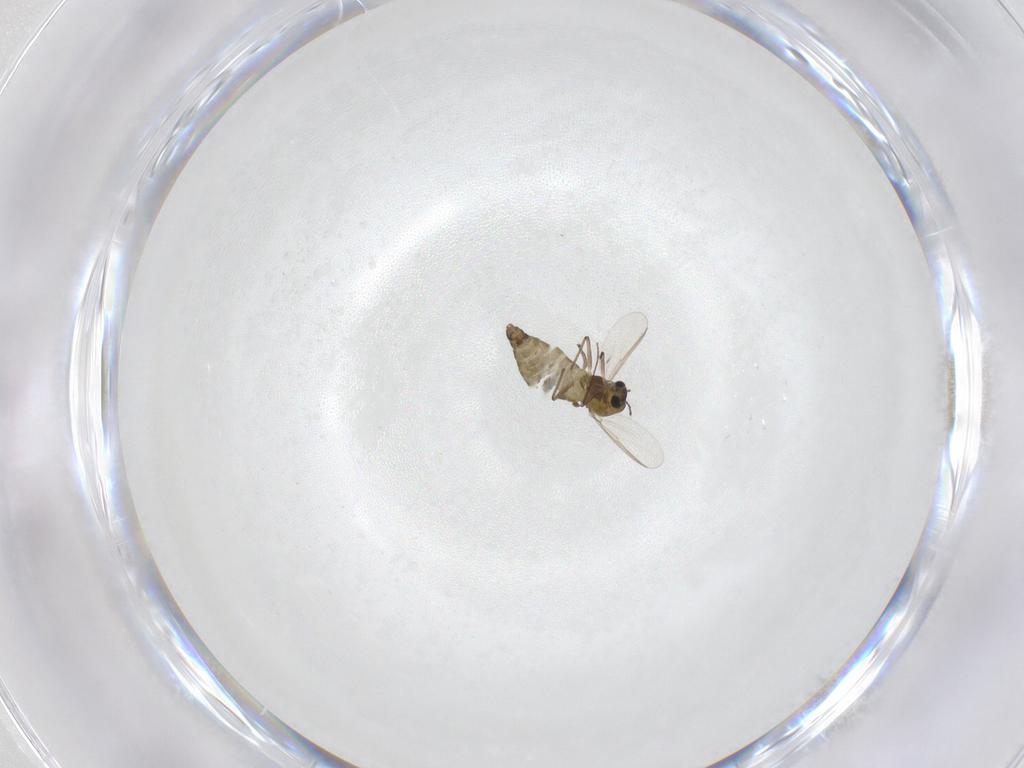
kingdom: Animalia
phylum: Arthropoda
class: Insecta
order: Diptera
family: Chironomidae
